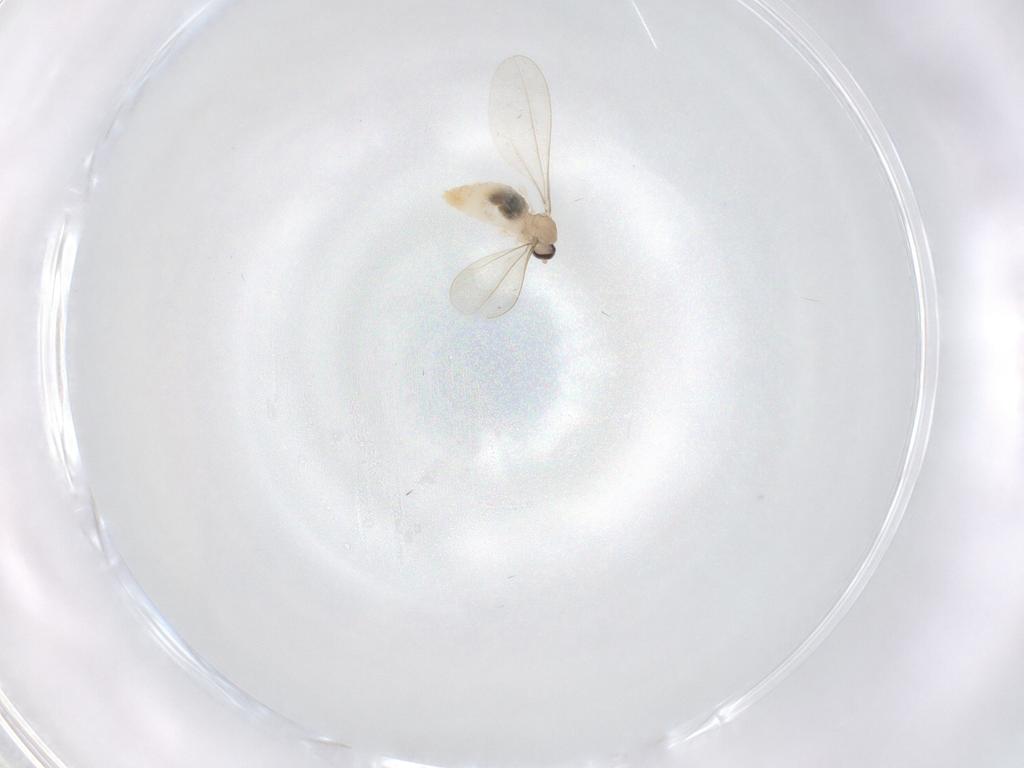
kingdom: Animalia
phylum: Arthropoda
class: Insecta
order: Diptera
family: Cecidomyiidae
